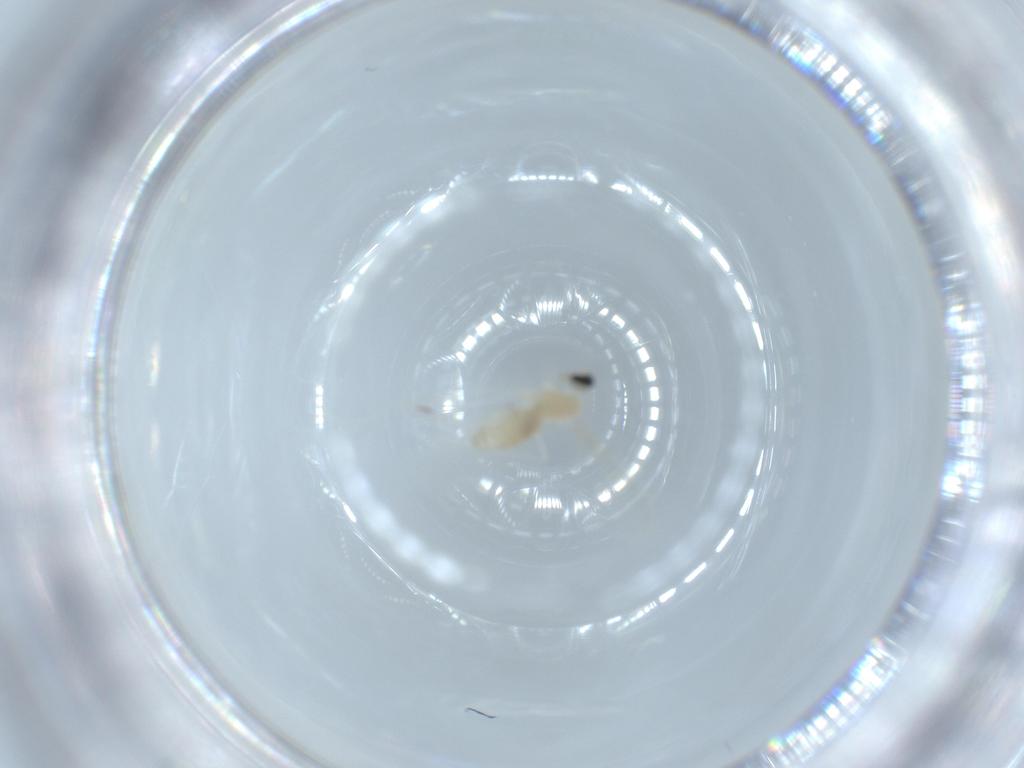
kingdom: Animalia
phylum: Arthropoda
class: Insecta
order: Diptera
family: Cecidomyiidae
